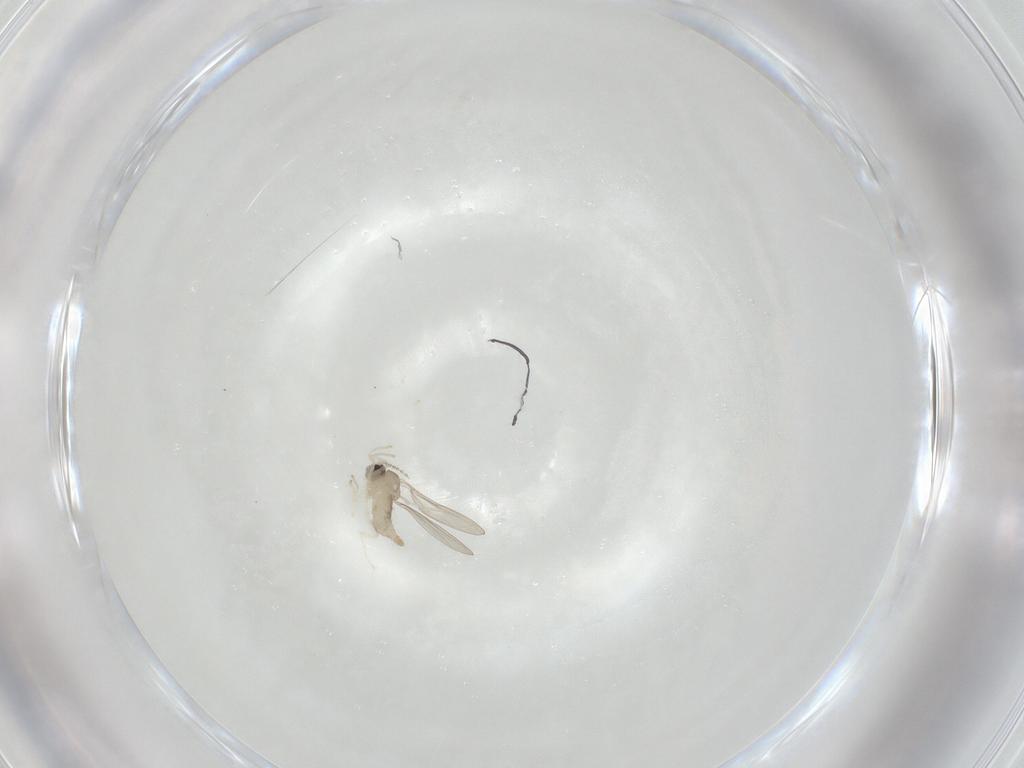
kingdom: Animalia
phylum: Arthropoda
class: Insecta
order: Diptera
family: Cecidomyiidae
